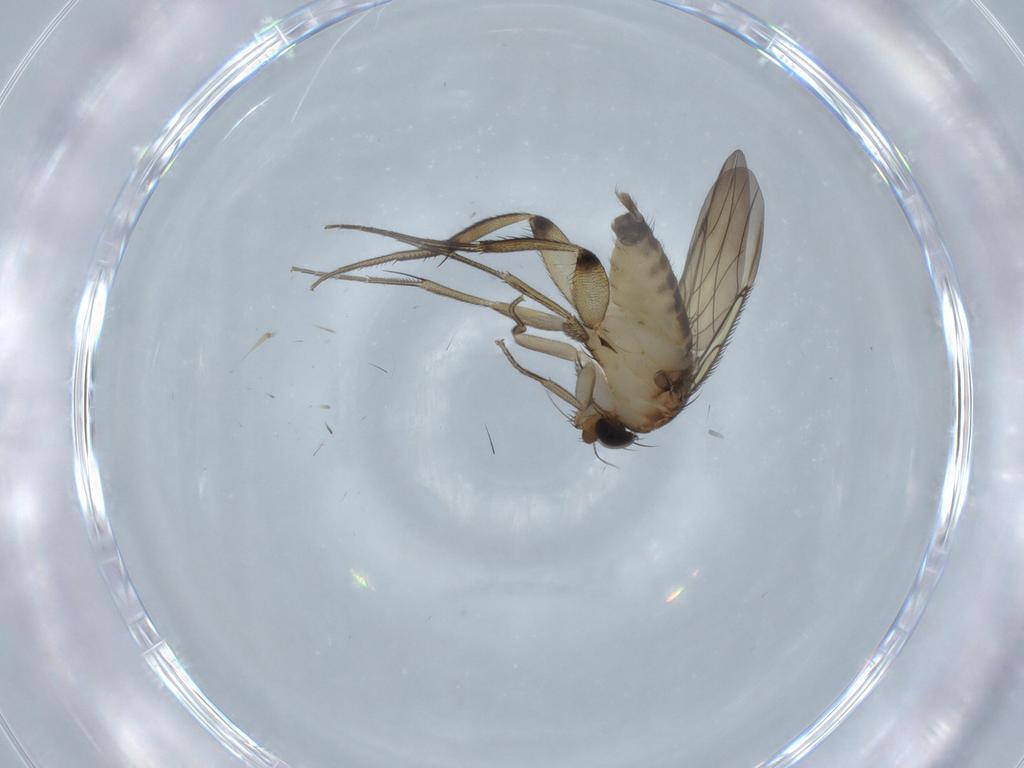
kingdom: Animalia
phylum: Arthropoda
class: Insecta
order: Diptera
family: Phoridae
